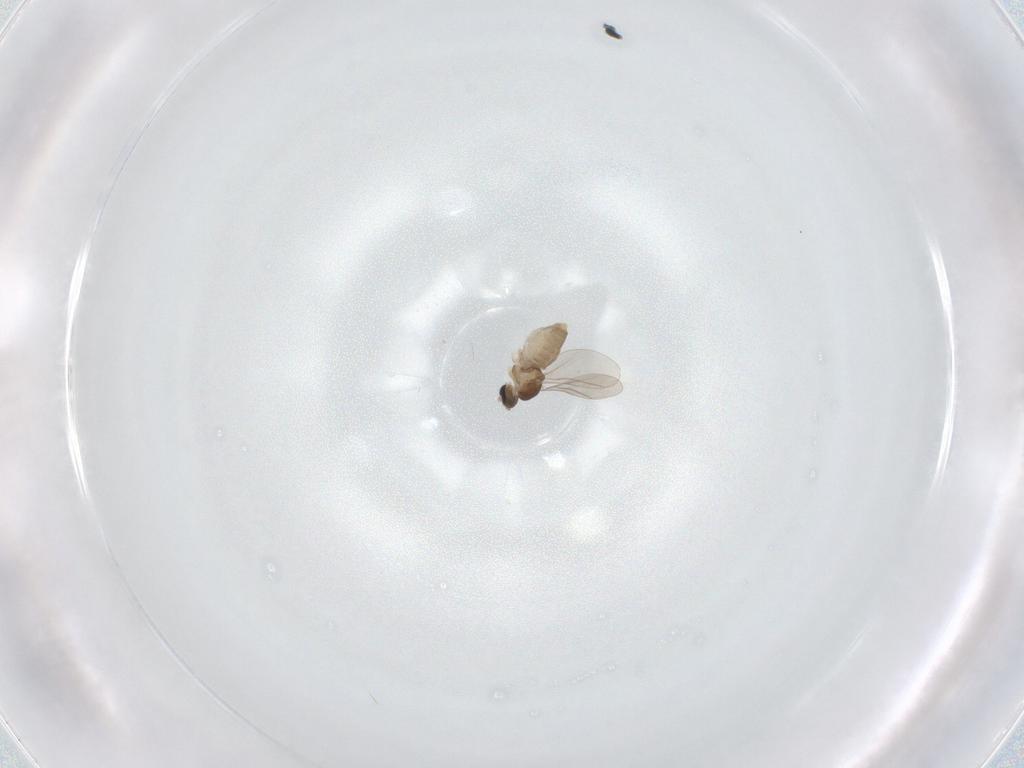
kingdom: Animalia
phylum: Arthropoda
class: Insecta
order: Diptera
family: Cecidomyiidae
